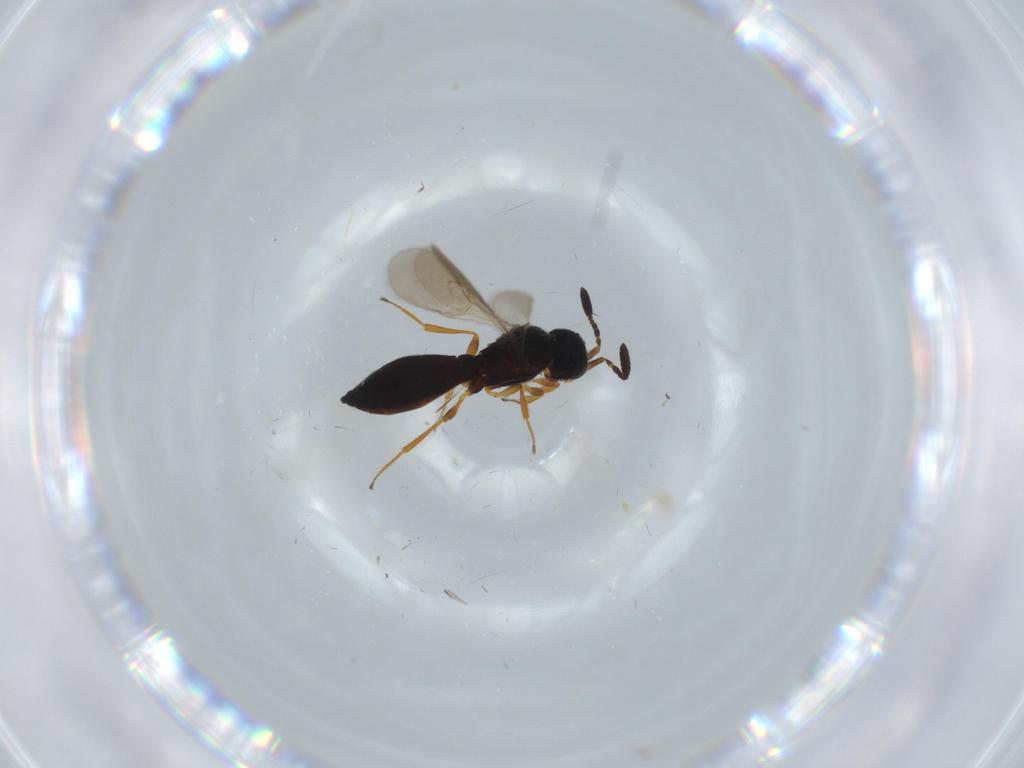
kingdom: Animalia
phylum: Arthropoda
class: Insecta
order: Hymenoptera
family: Scelionidae
